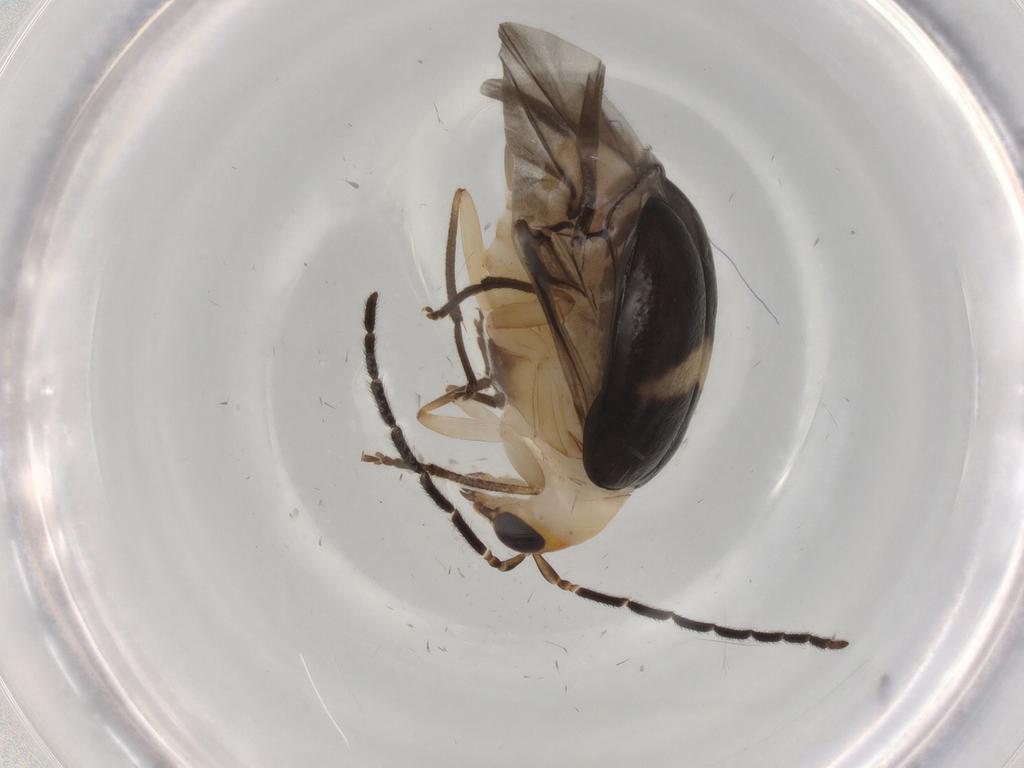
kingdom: Animalia
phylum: Arthropoda
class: Insecta
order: Coleoptera
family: Chrysomelidae
